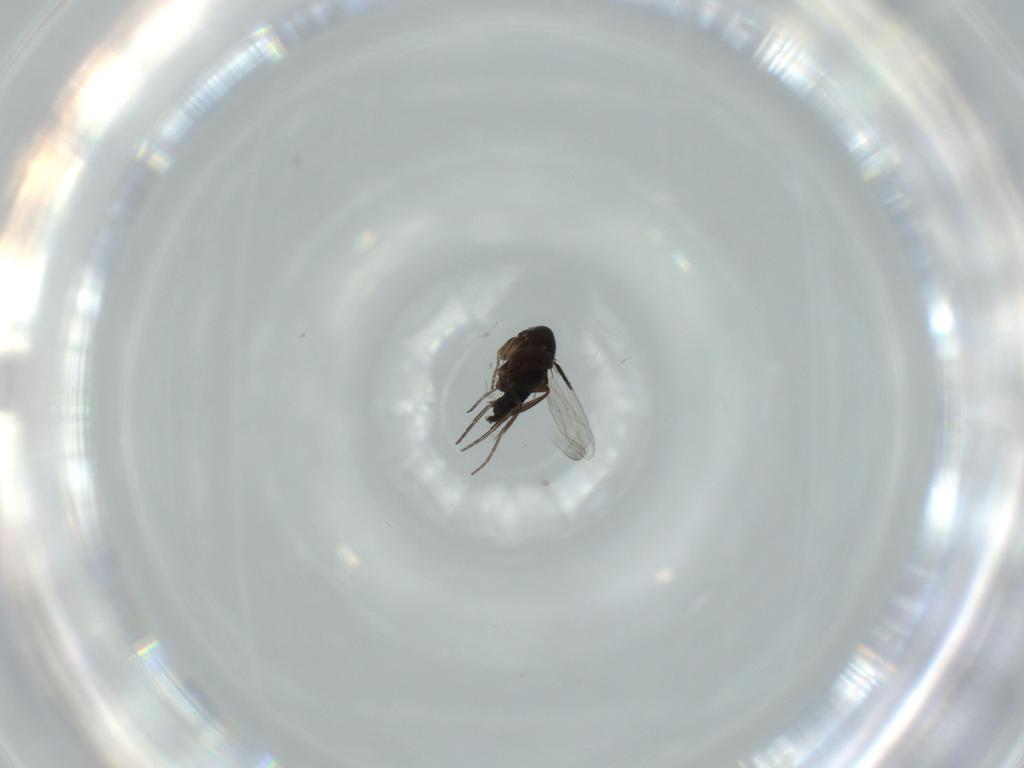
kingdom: Animalia
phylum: Arthropoda
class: Insecta
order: Diptera
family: Phoridae
